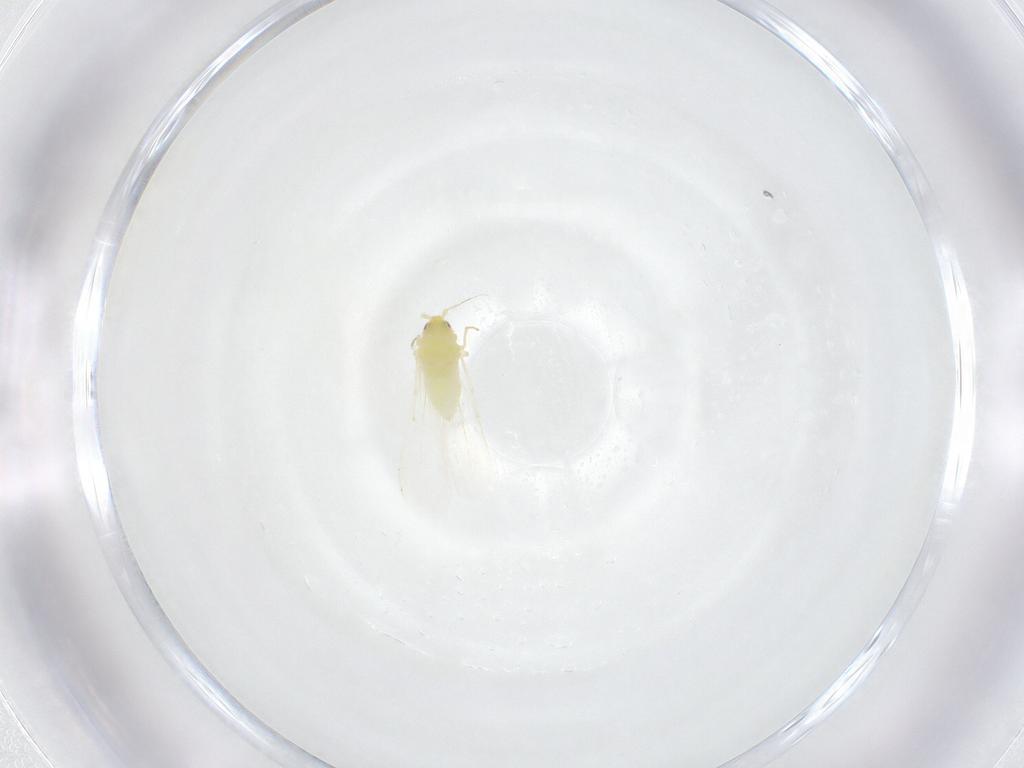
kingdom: Animalia
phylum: Arthropoda
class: Insecta
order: Hemiptera
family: Aleyrodidae
